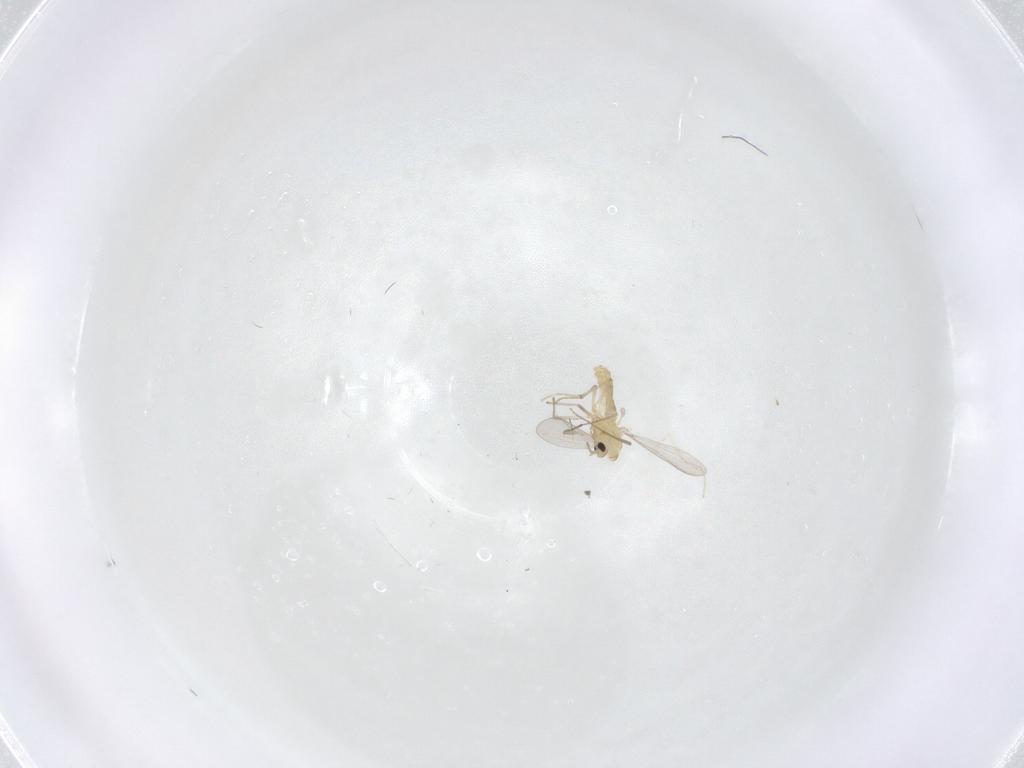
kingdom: Animalia
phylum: Arthropoda
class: Insecta
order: Diptera
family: Chironomidae
